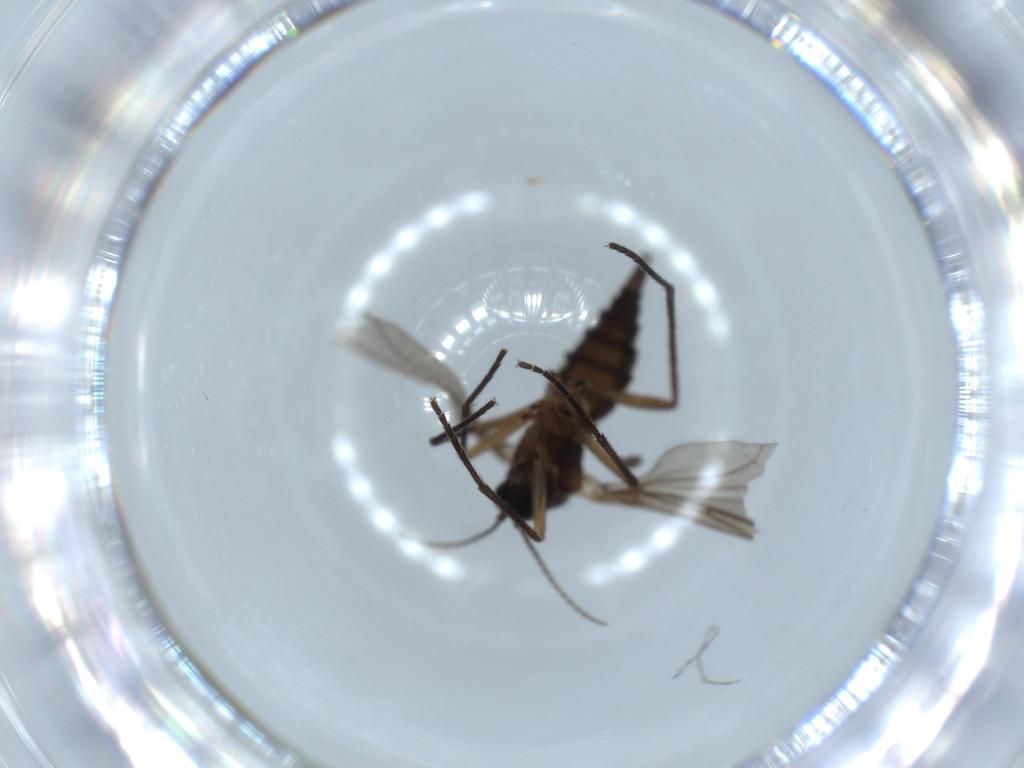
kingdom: Animalia
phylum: Arthropoda
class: Insecta
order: Diptera
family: Sciaridae
